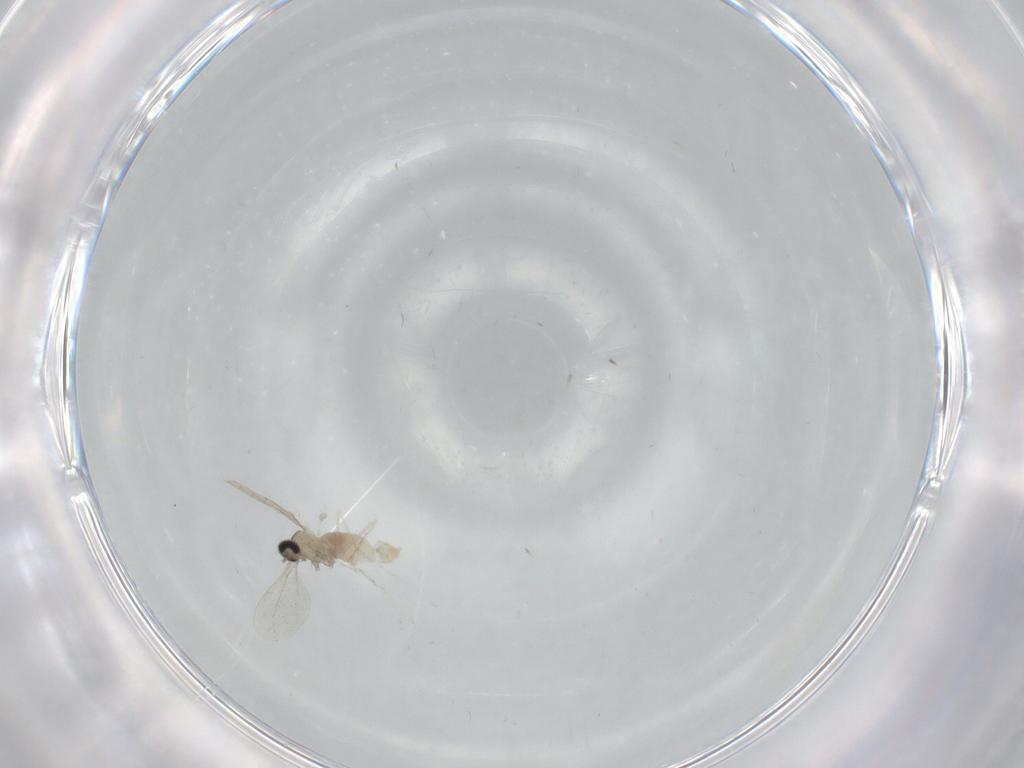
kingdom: Animalia
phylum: Arthropoda
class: Insecta
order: Diptera
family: Cecidomyiidae
